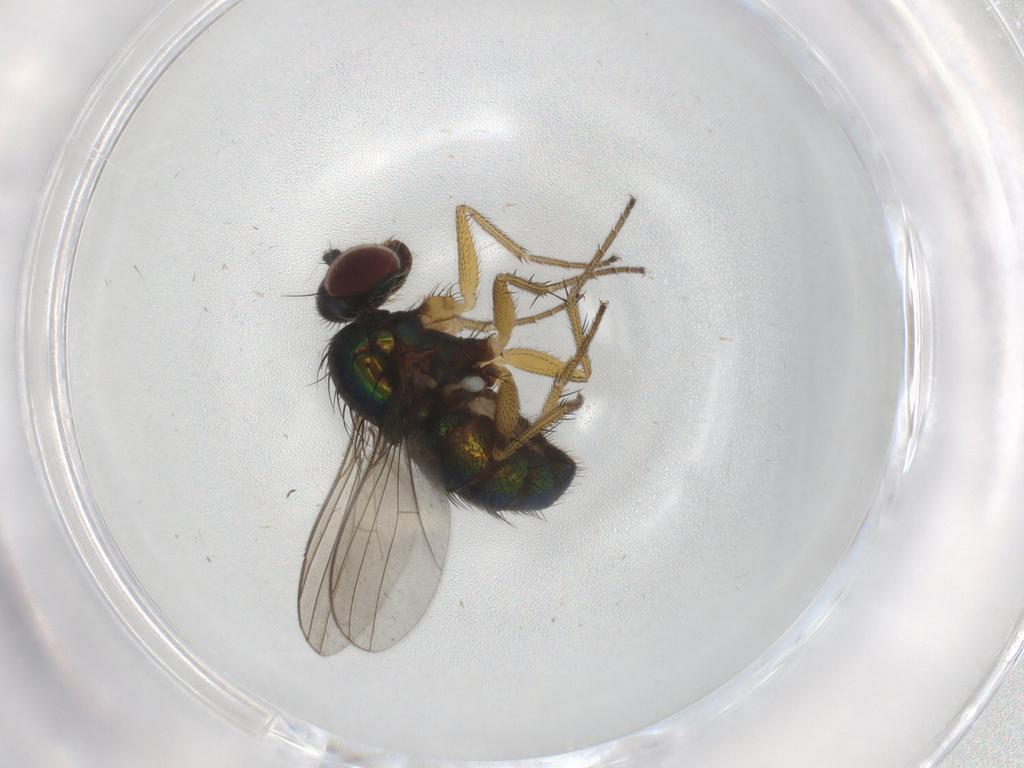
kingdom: Animalia
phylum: Arthropoda
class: Insecta
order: Diptera
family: Dolichopodidae
